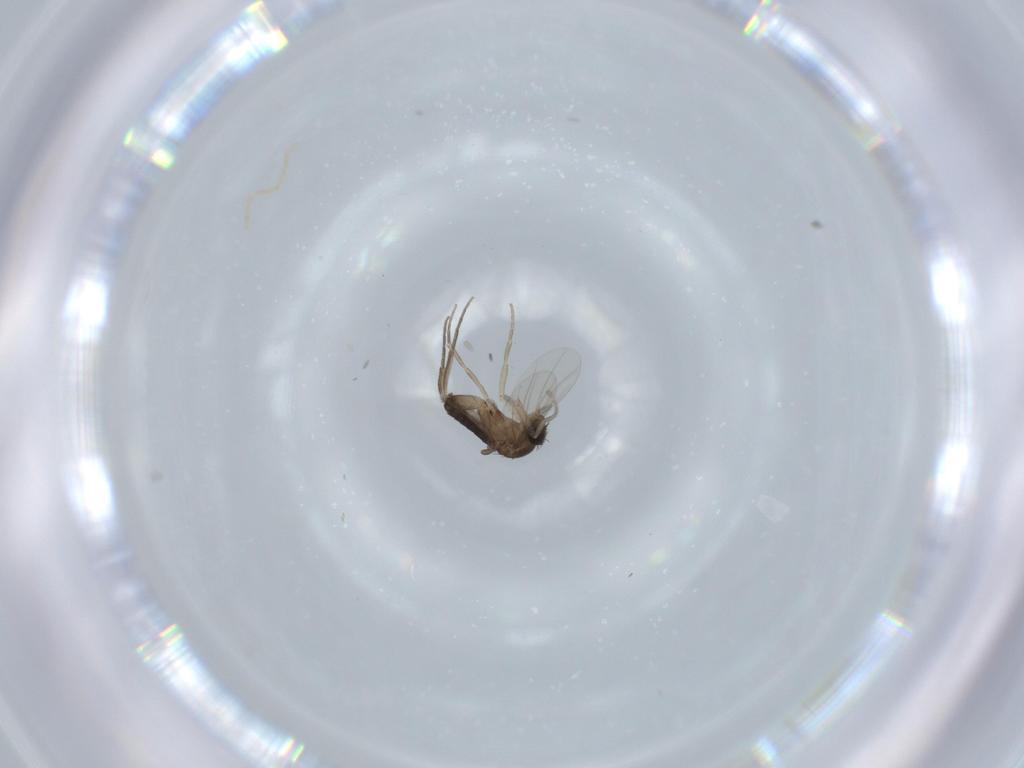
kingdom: Animalia
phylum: Arthropoda
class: Insecta
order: Diptera
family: Phoridae
